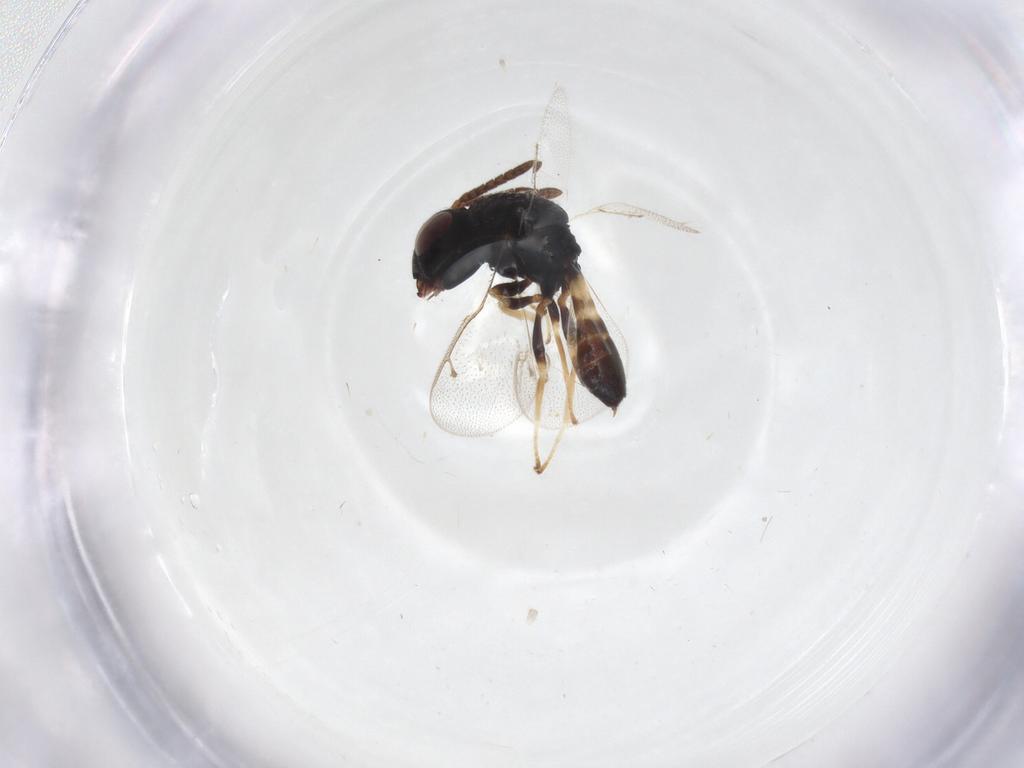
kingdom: Animalia
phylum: Arthropoda
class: Insecta
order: Hymenoptera
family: Pteromalidae
